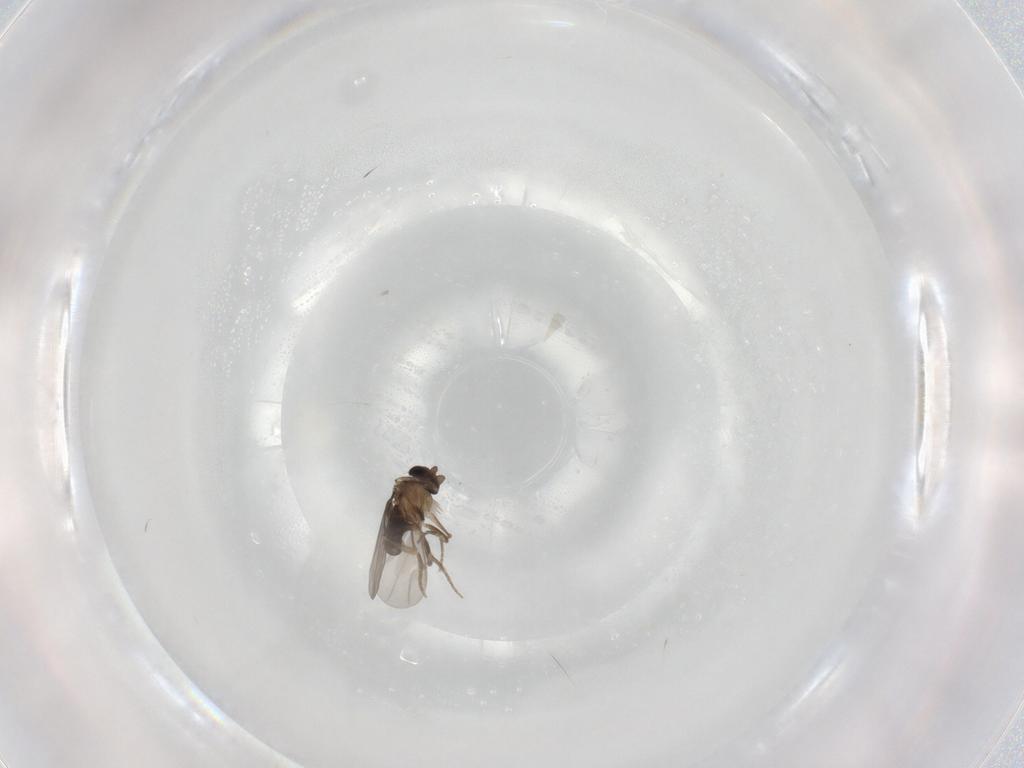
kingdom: Animalia
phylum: Arthropoda
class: Insecta
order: Diptera
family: Phoridae
